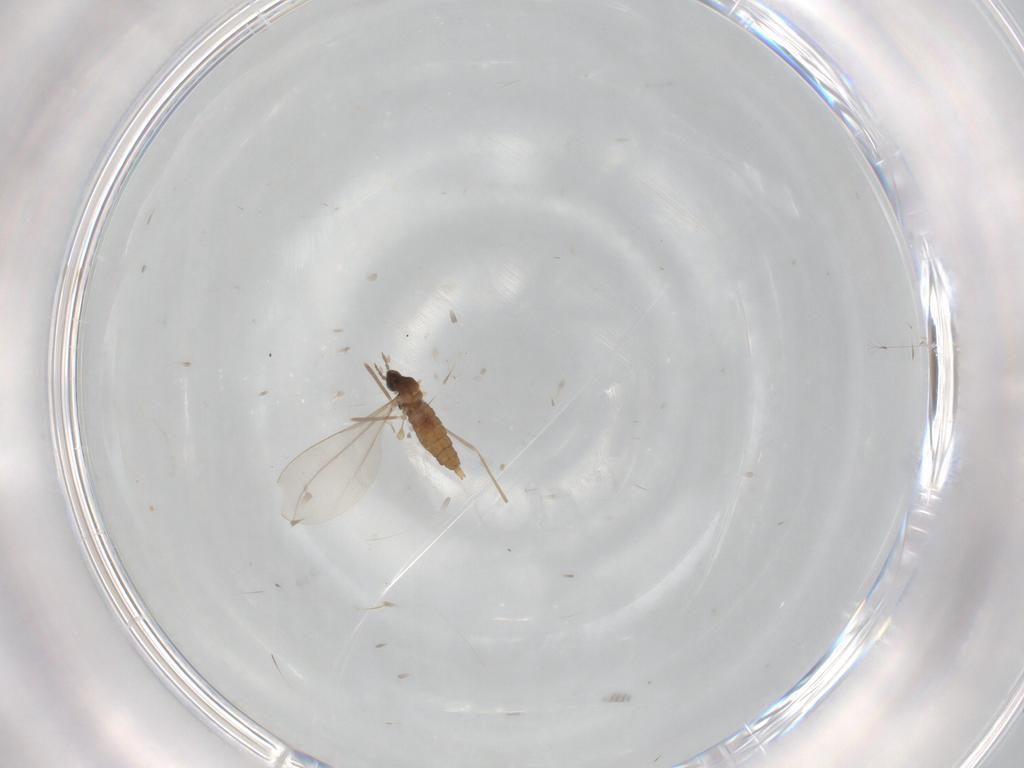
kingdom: Animalia
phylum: Arthropoda
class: Insecta
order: Diptera
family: Cecidomyiidae
